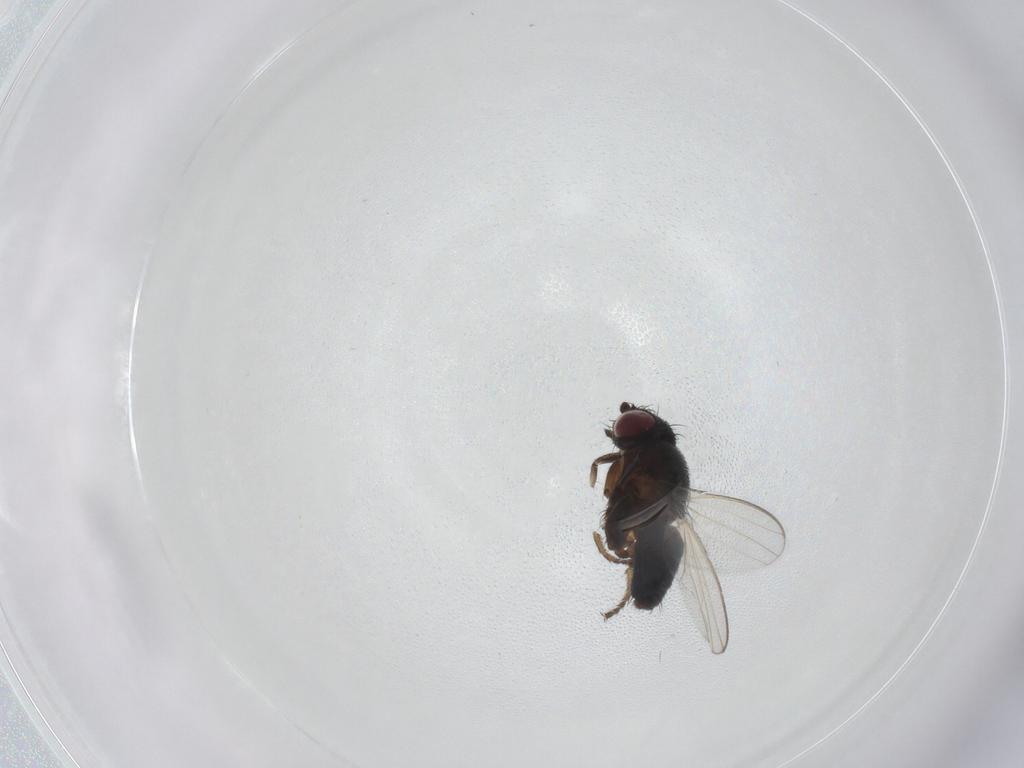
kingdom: Animalia
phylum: Arthropoda
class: Insecta
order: Diptera
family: Milichiidae
